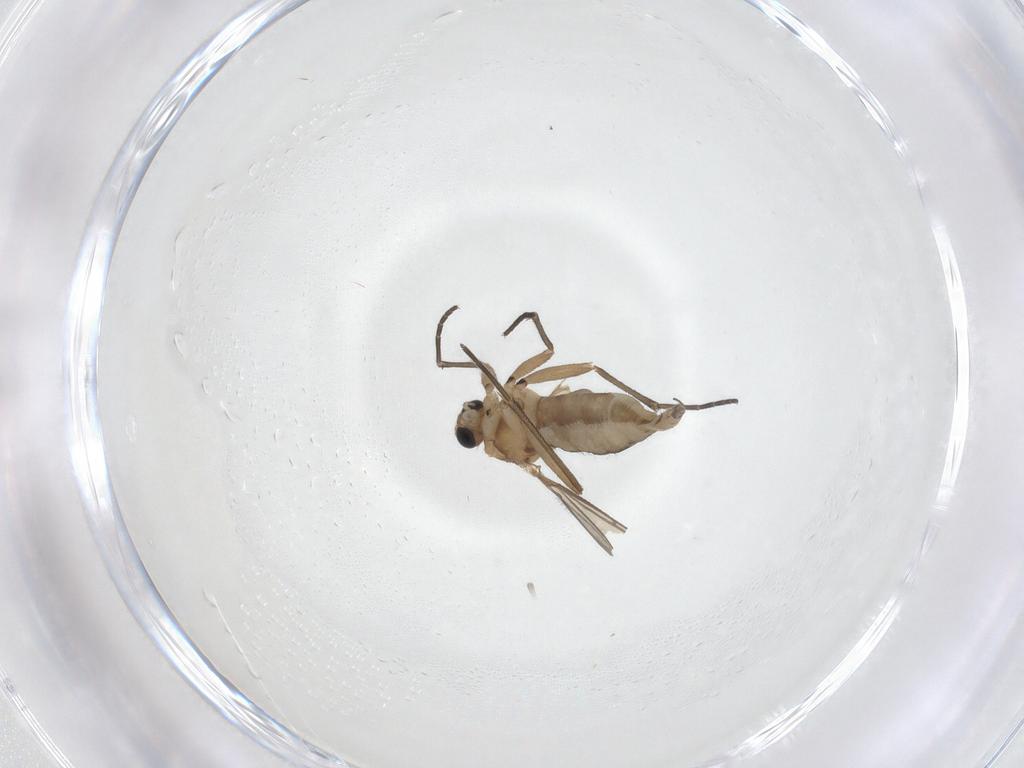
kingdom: Animalia
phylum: Arthropoda
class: Insecta
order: Diptera
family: Sciaridae
